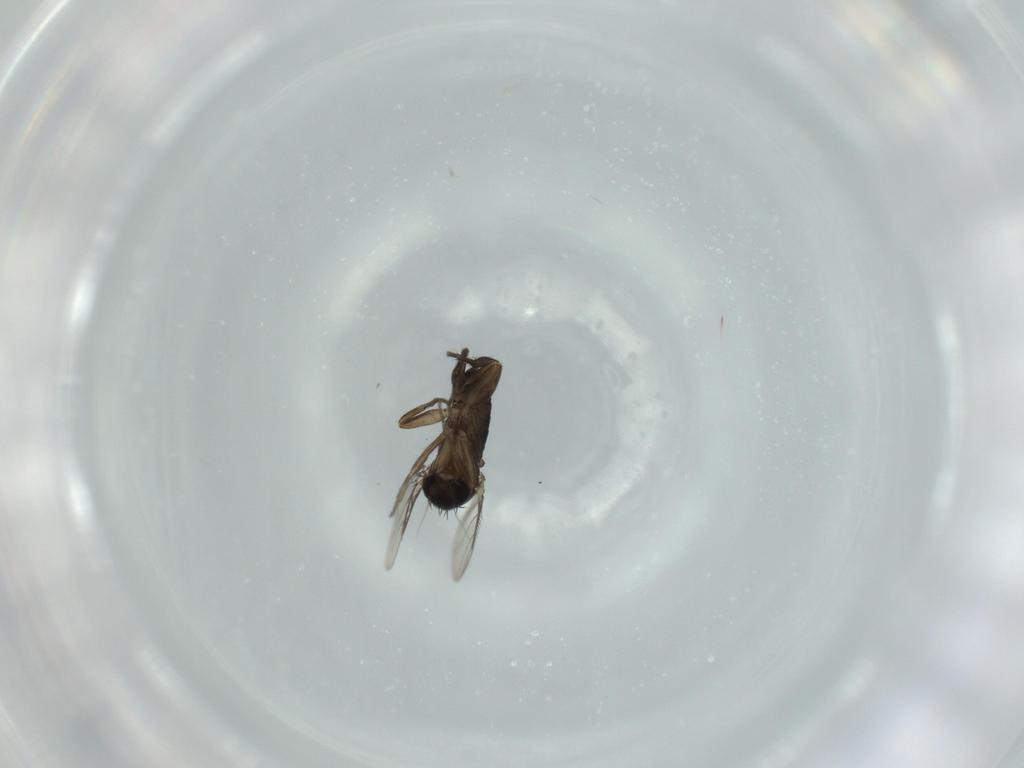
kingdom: Animalia
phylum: Arthropoda
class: Insecta
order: Diptera
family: Phoridae
